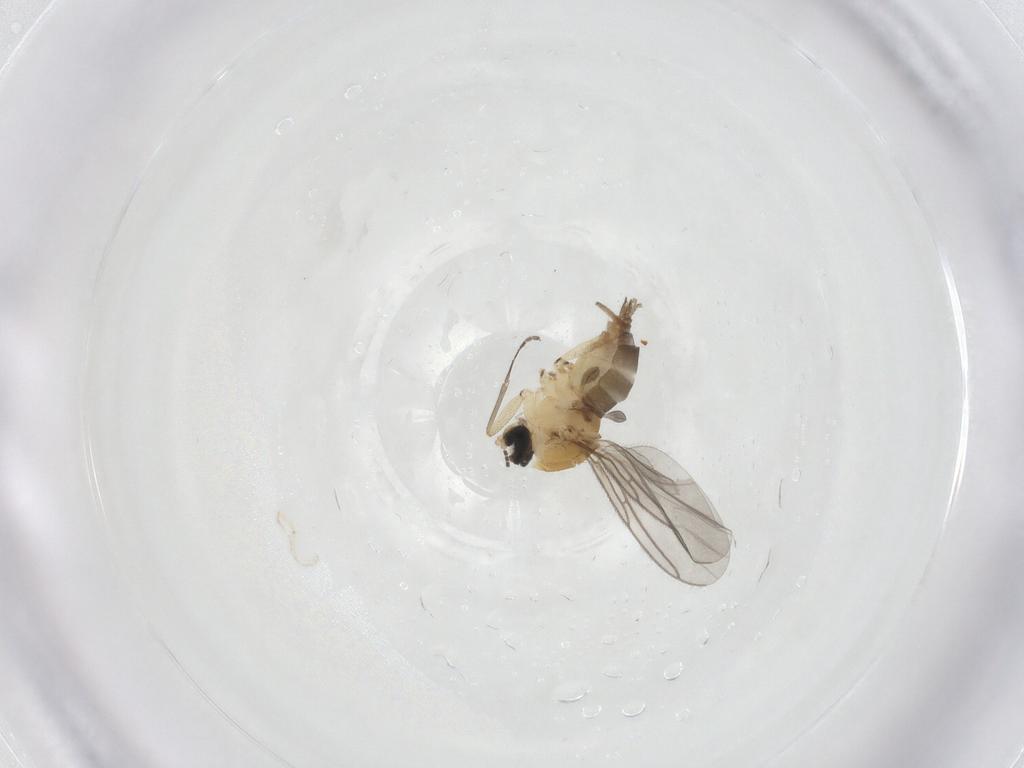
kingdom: Animalia
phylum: Arthropoda
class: Insecta
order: Diptera
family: Sciaridae
